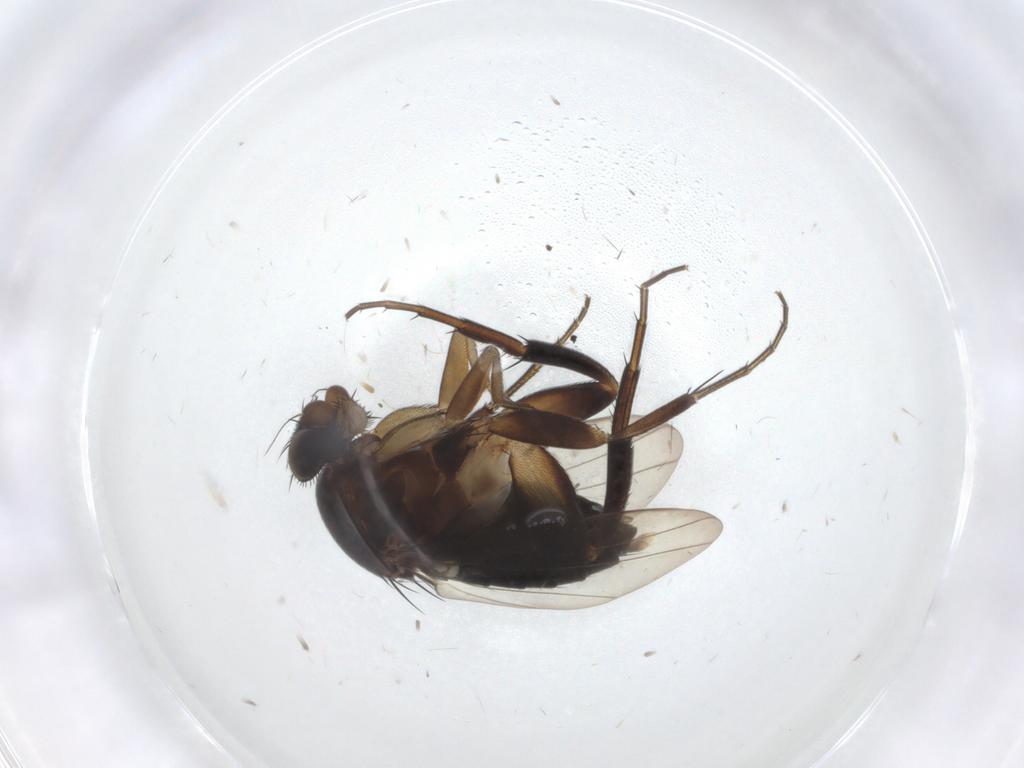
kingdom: Animalia
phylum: Arthropoda
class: Insecta
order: Diptera
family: Phoridae
